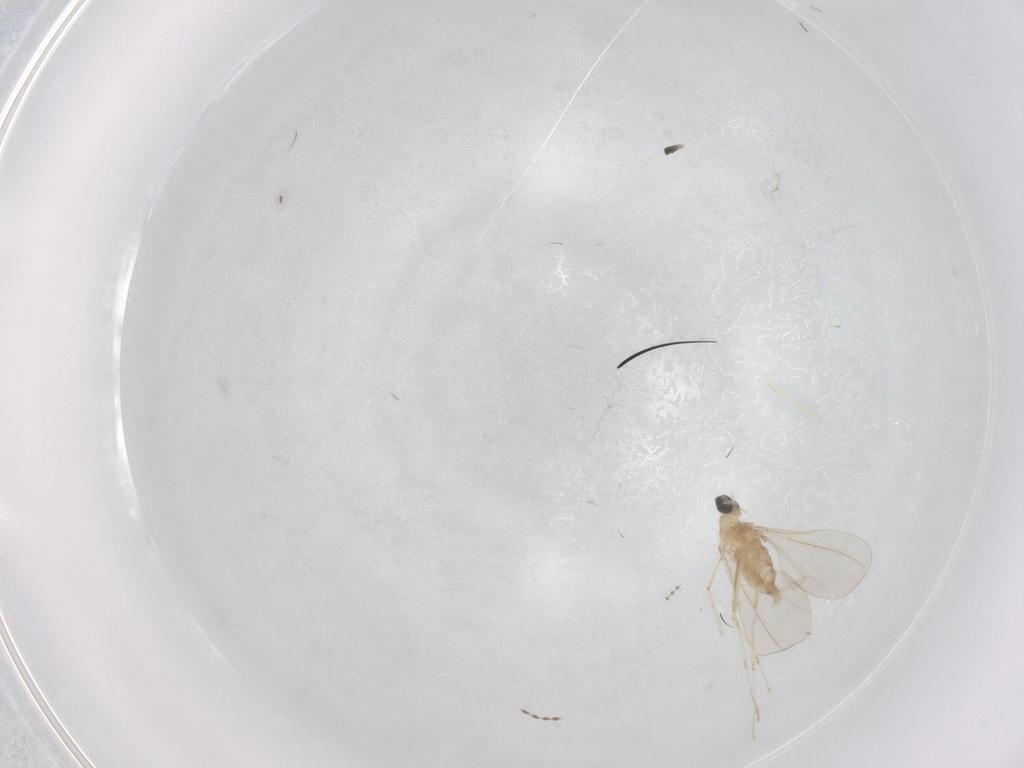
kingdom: Animalia
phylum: Arthropoda
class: Insecta
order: Diptera
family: Cecidomyiidae
